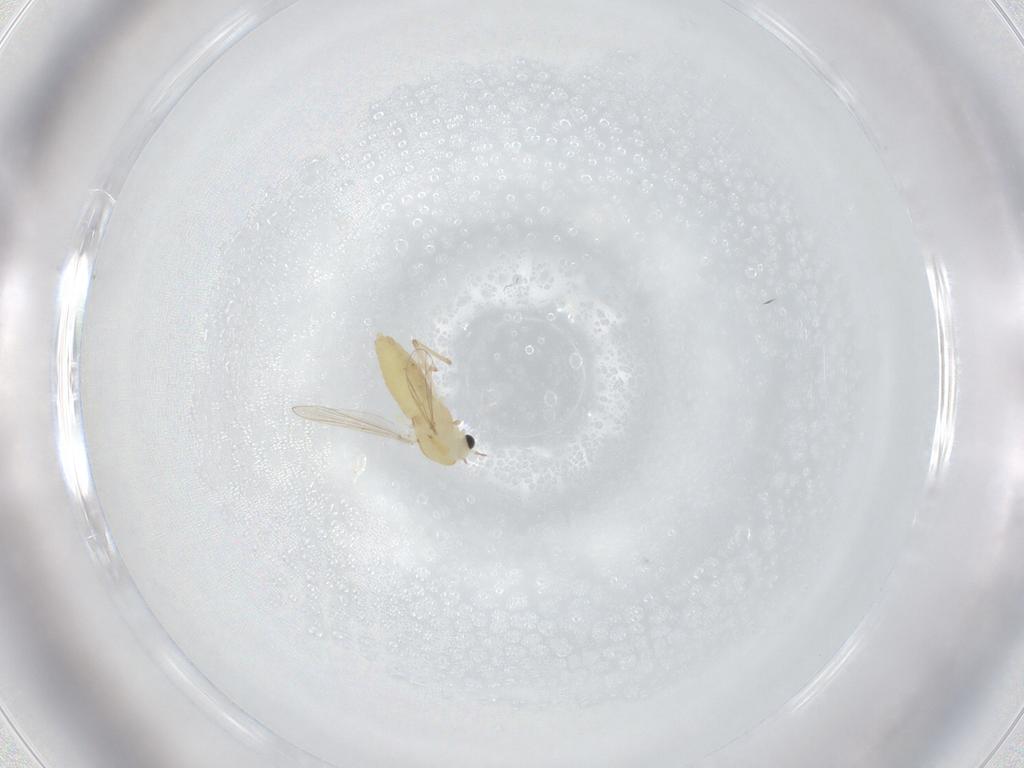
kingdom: Animalia
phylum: Arthropoda
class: Insecta
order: Diptera
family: Chironomidae
